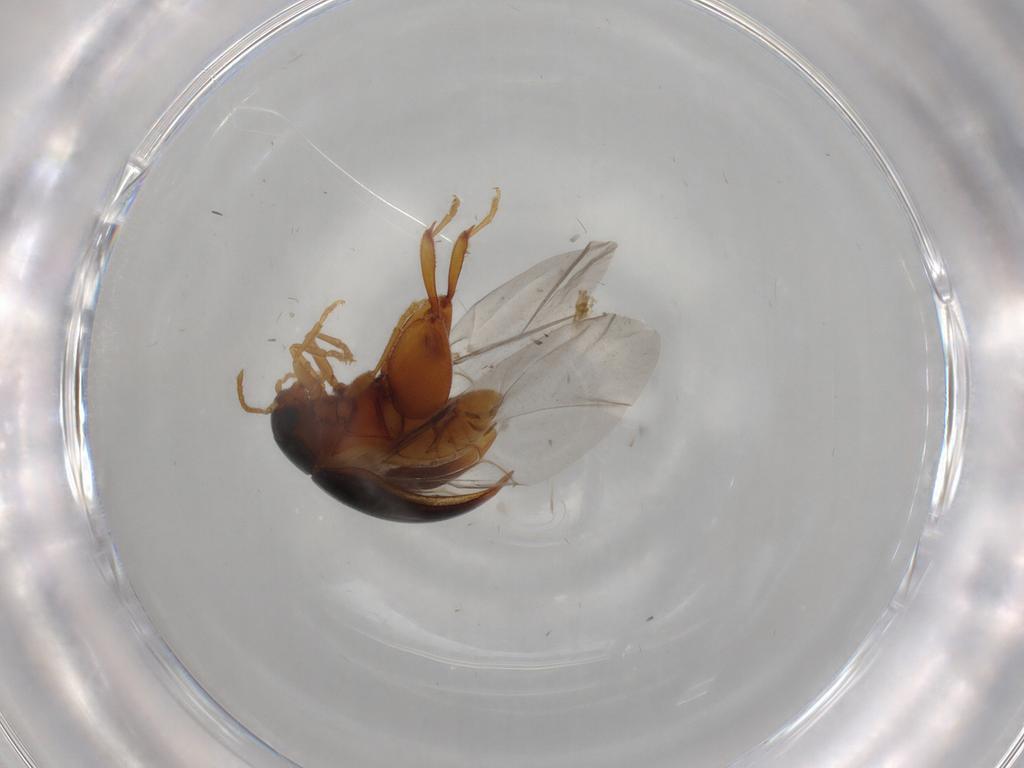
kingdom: Animalia
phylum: Arthropoda
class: Insecta
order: Coleoptera
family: Chrysomelidae
